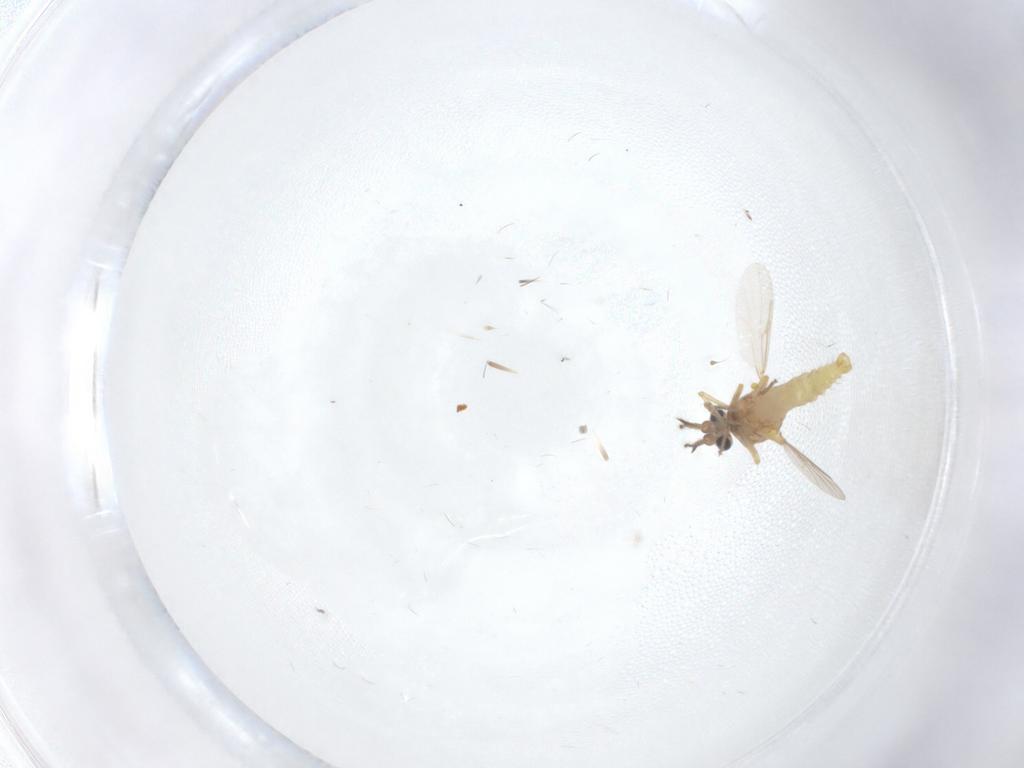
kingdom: Animalia
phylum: Arthropoda
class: Insecta
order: Diptera
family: Ceratopogonidae
